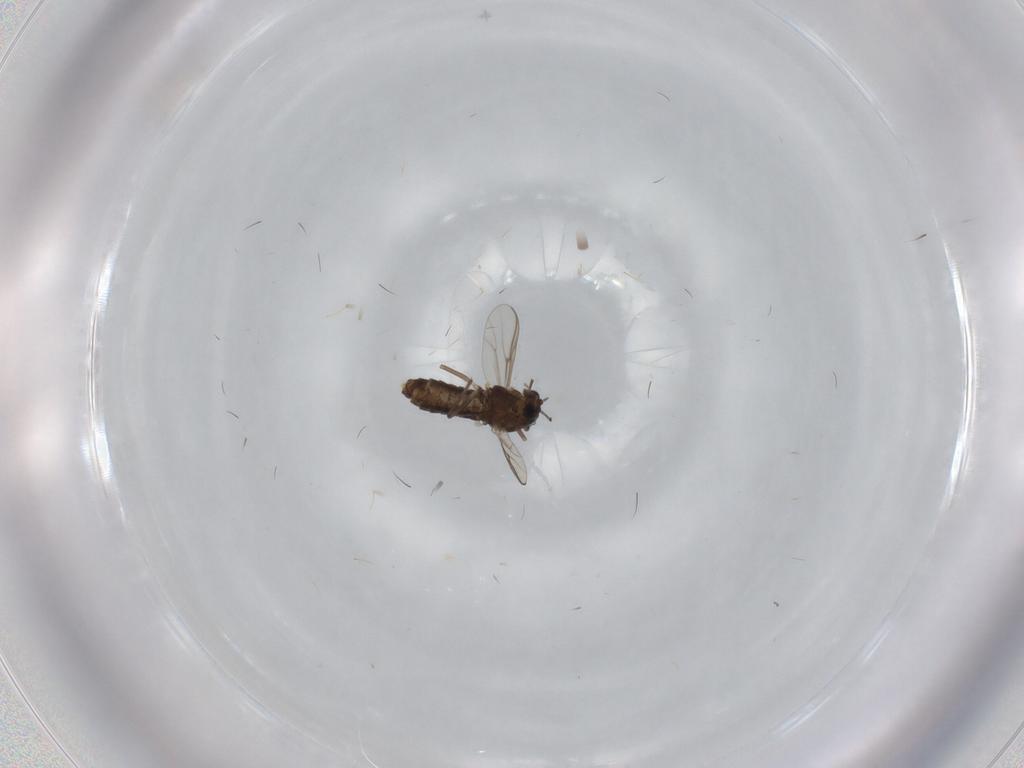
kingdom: Animalia
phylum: Arthropoda
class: Insecta
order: Diptera
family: Chironomidae
